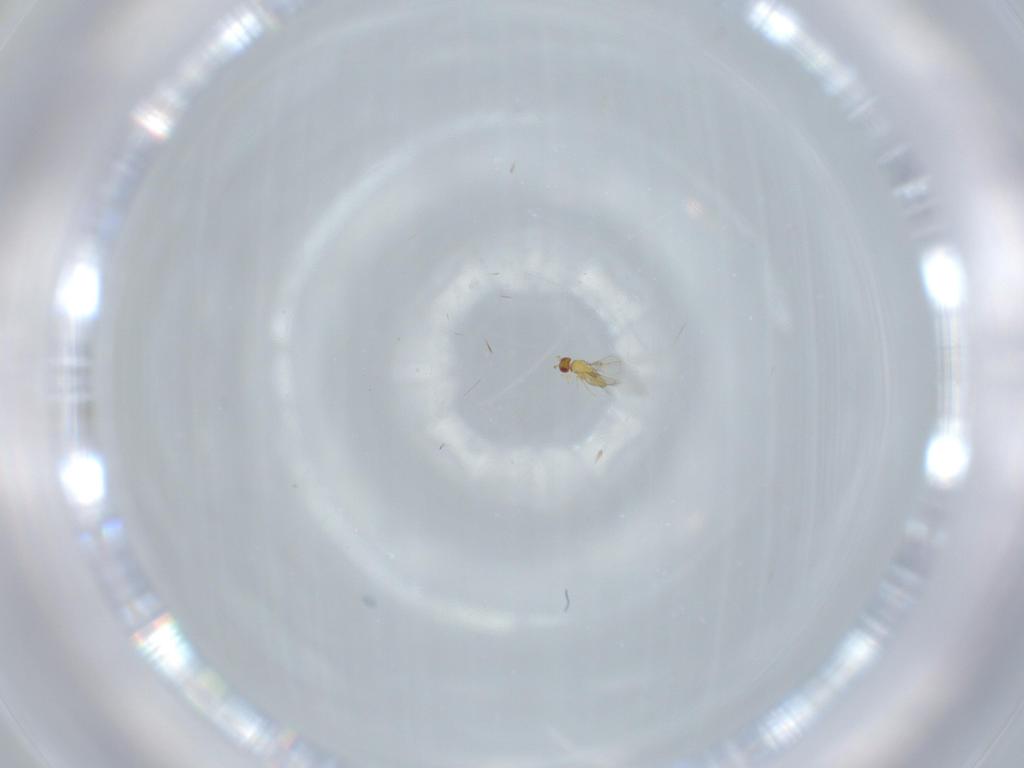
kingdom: Animalia
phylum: Arthropoda
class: Insecta
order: Hymenoptera
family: Trichogrammatidae
